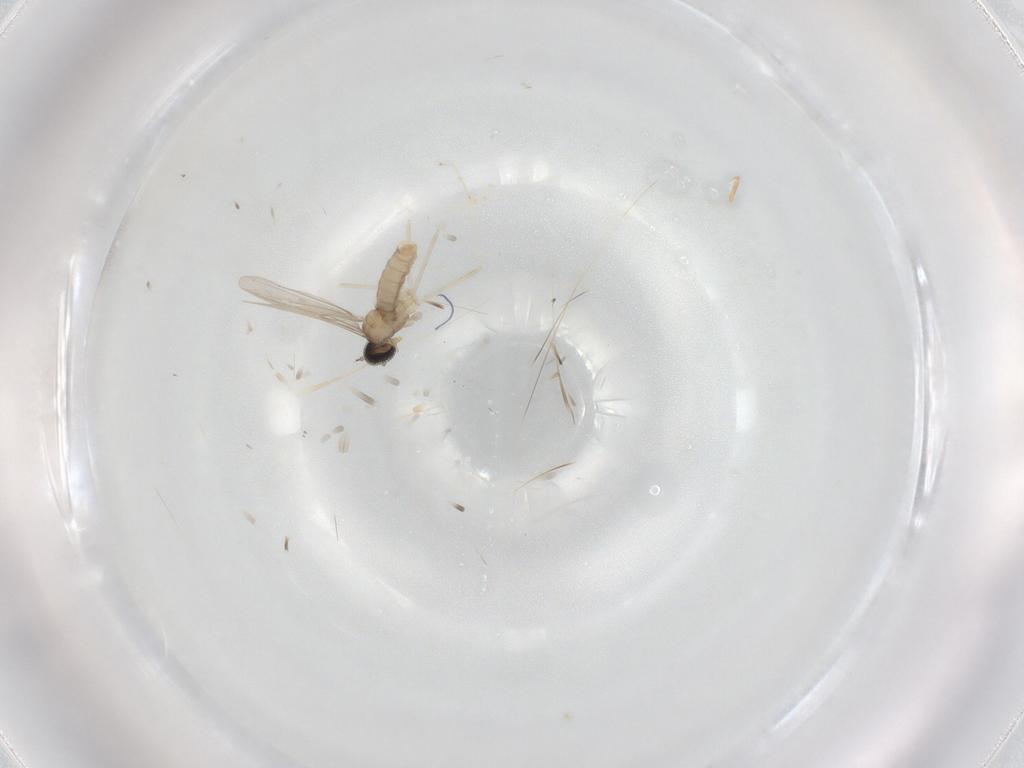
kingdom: Animalia
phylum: Arthropoda
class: Insecta
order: Diptera
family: Cecidomyiidae
